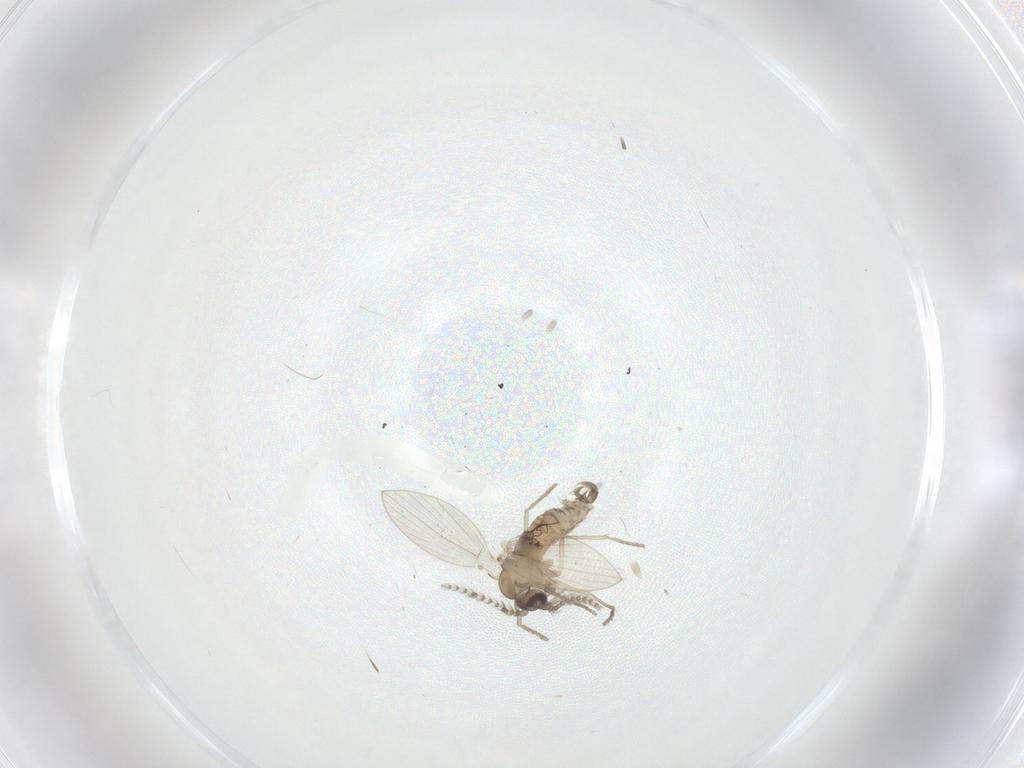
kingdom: Animalia
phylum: Arthropoda
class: Insecta
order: Diptera
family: Psychodidae
